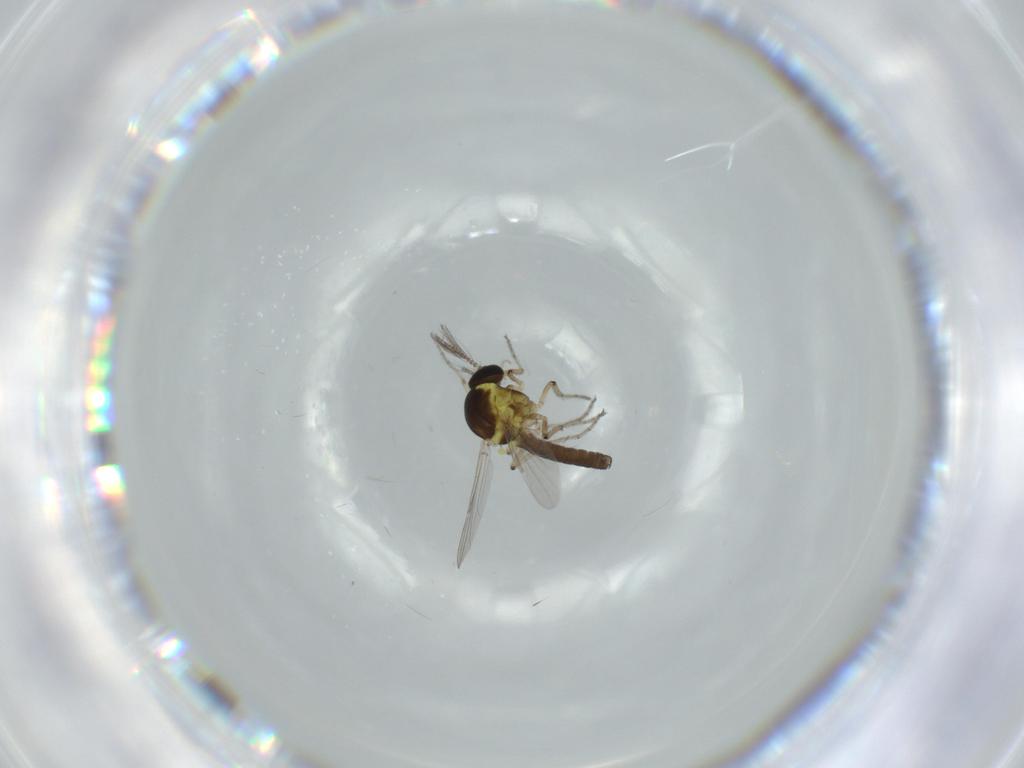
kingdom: Animalia
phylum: Arthropoda
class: Insecta
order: Diptera
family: Ceratopogonidae
